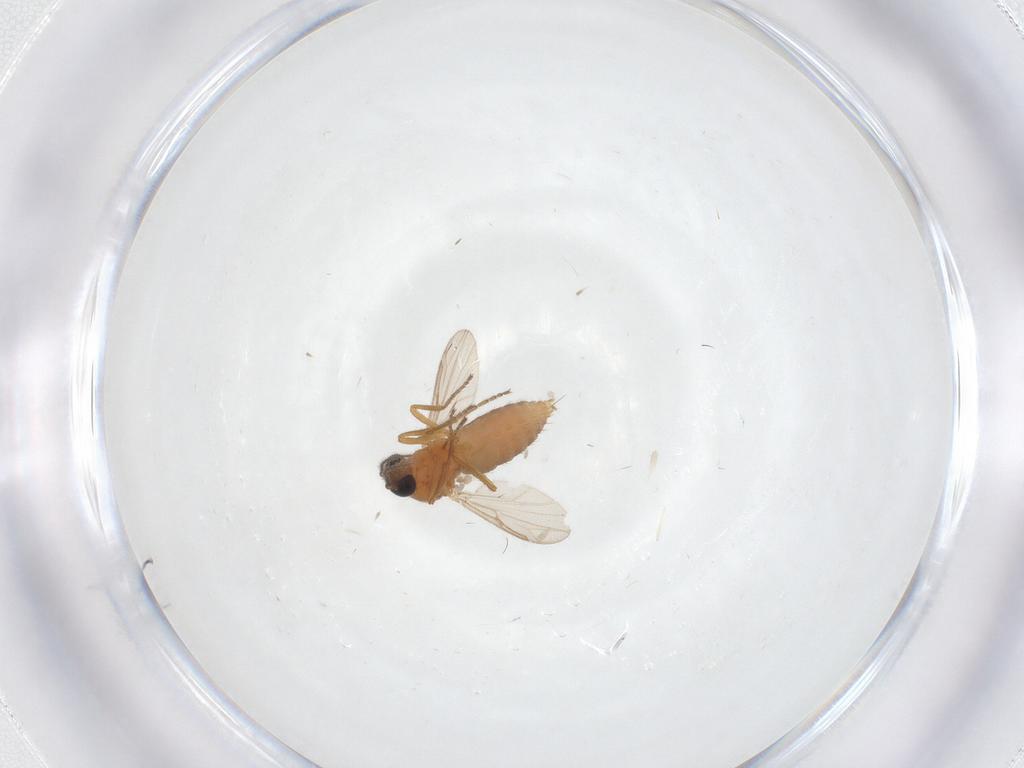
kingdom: Animalia
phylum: Arthropoda
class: Insecta
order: Diptera
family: Ceratopogonidae
